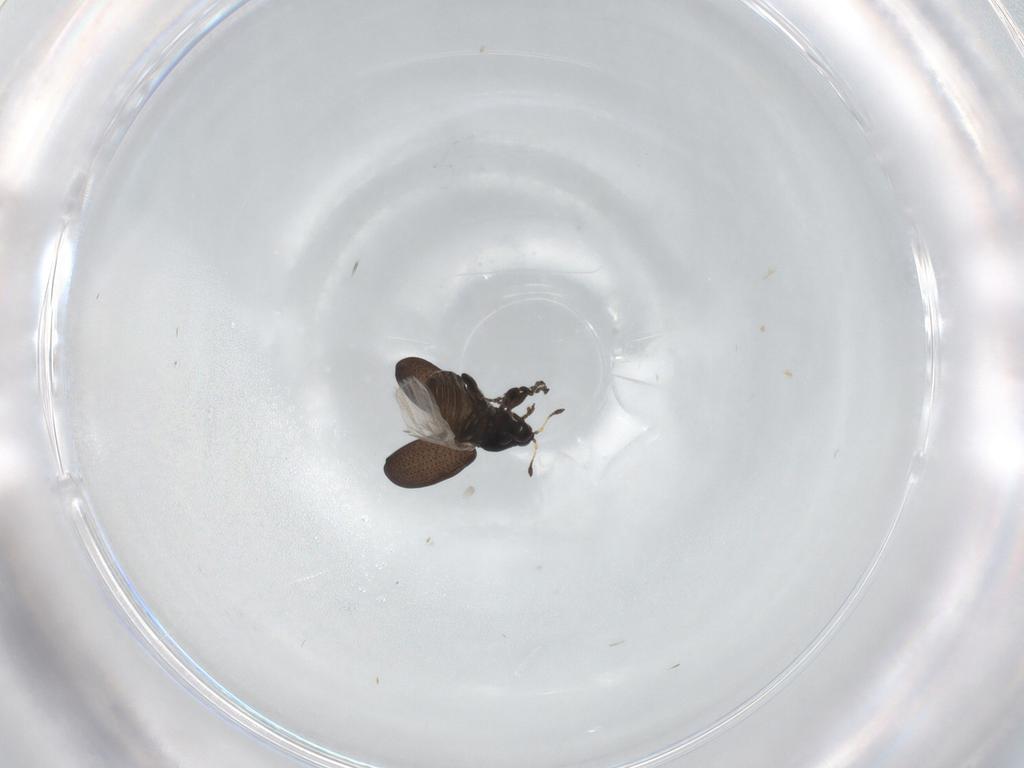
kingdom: Animalia
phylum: Arthropoda
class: Insecta
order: Coleoptera
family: Curculionidae
